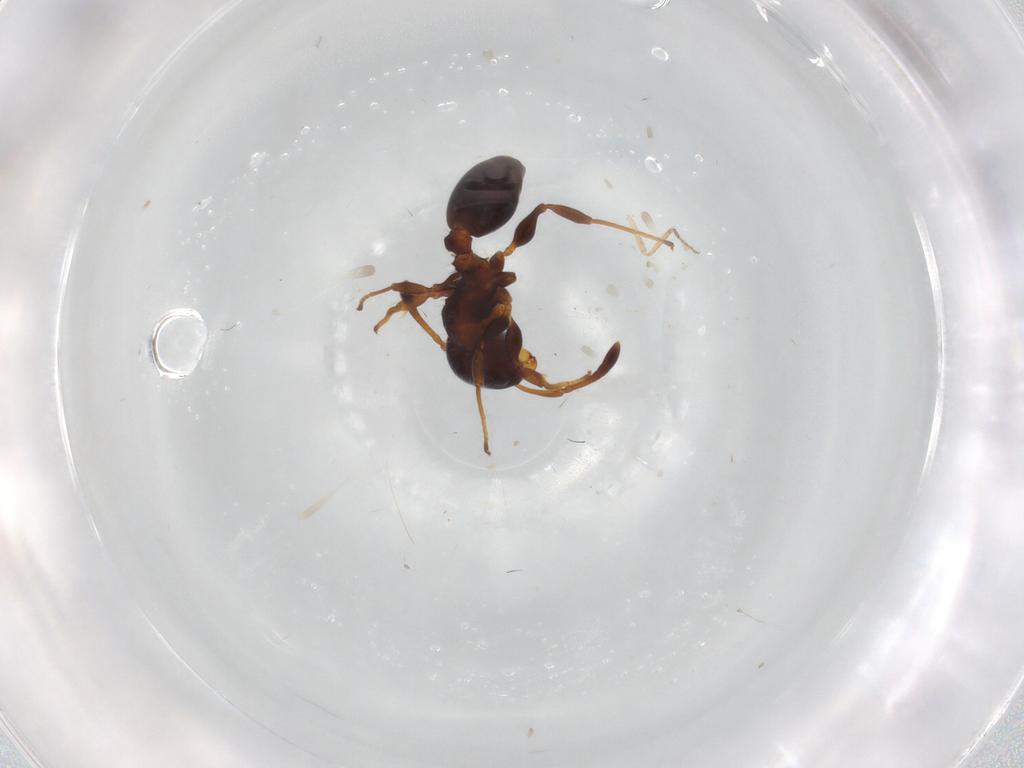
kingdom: Animalia
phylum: Arthropoda
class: Insecta
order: Hymenoptera
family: Formicidae
